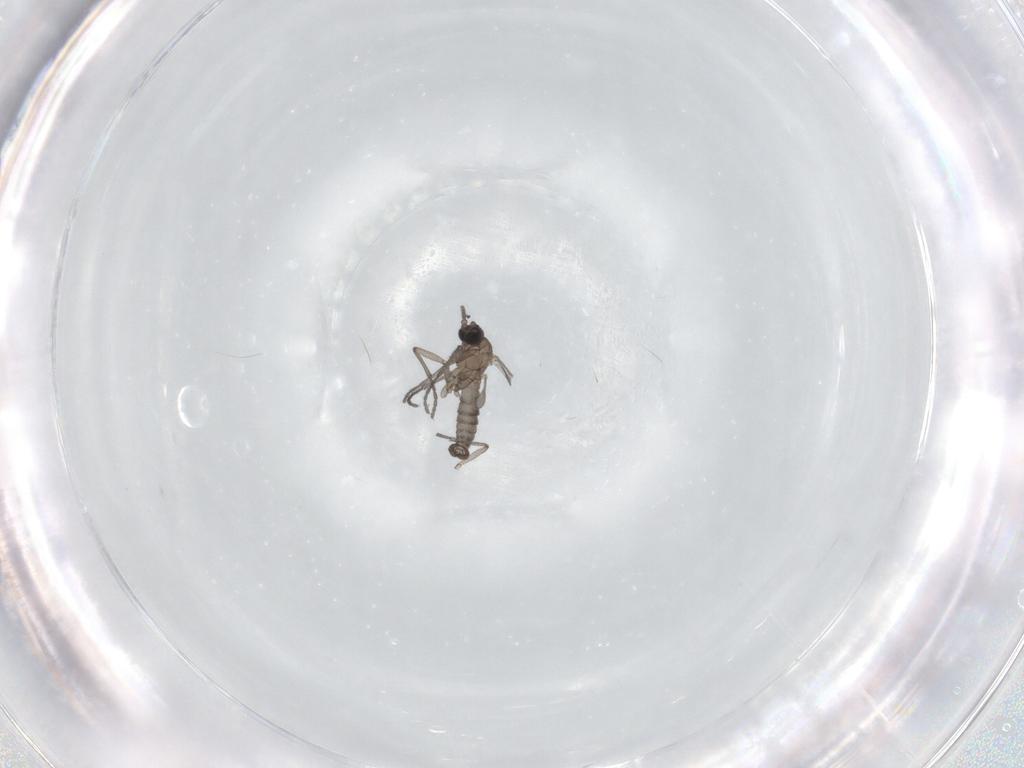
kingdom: Animalia
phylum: Arthropoda
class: Insecta
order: Diptera
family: Sciaridae
